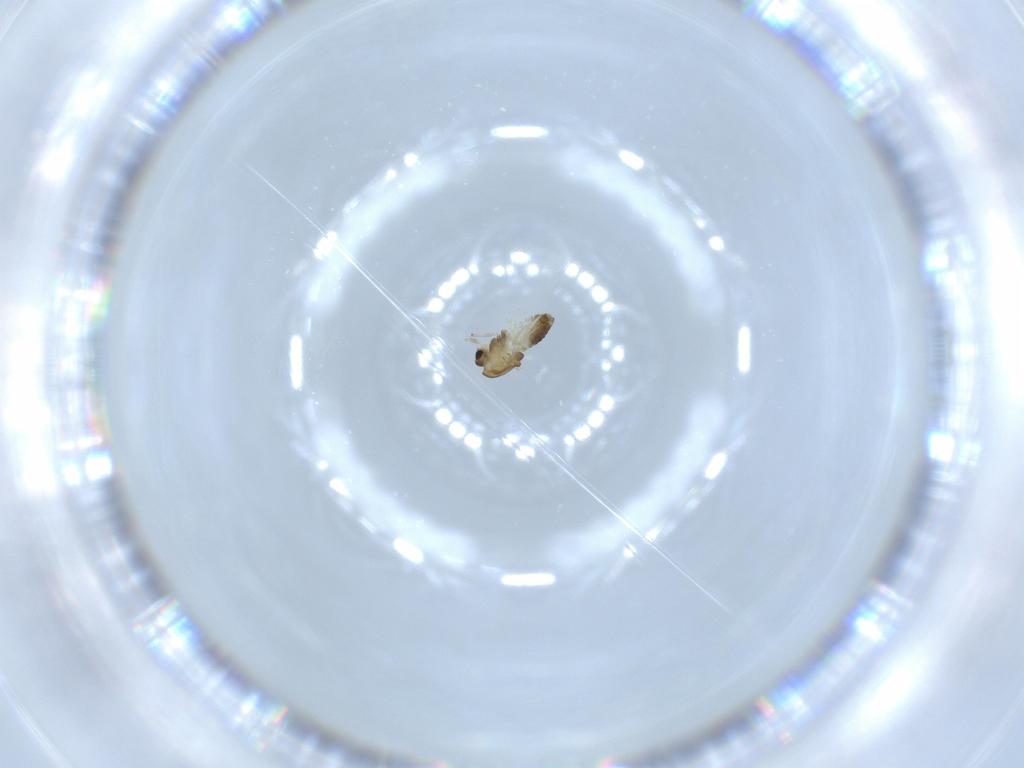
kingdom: Animalia
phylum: Arthropoda
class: Insecta
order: Diptera
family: Chironomidae
